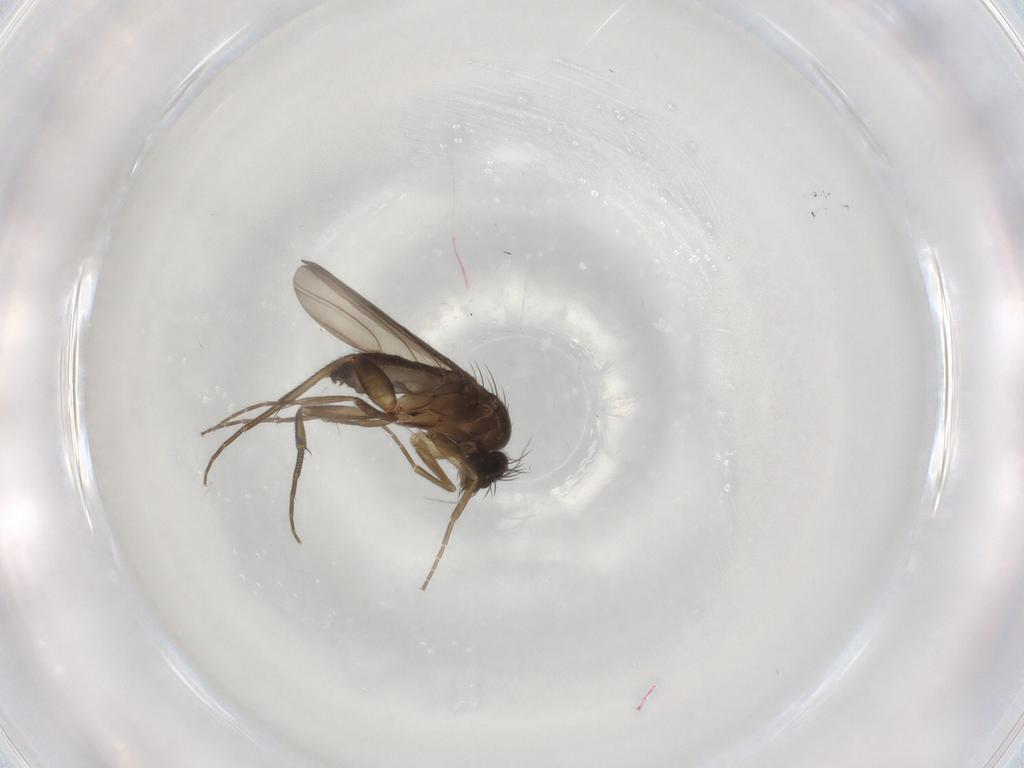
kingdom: Animalia
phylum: Arthropoda
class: Insecta
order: Diptera
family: Phoridae
